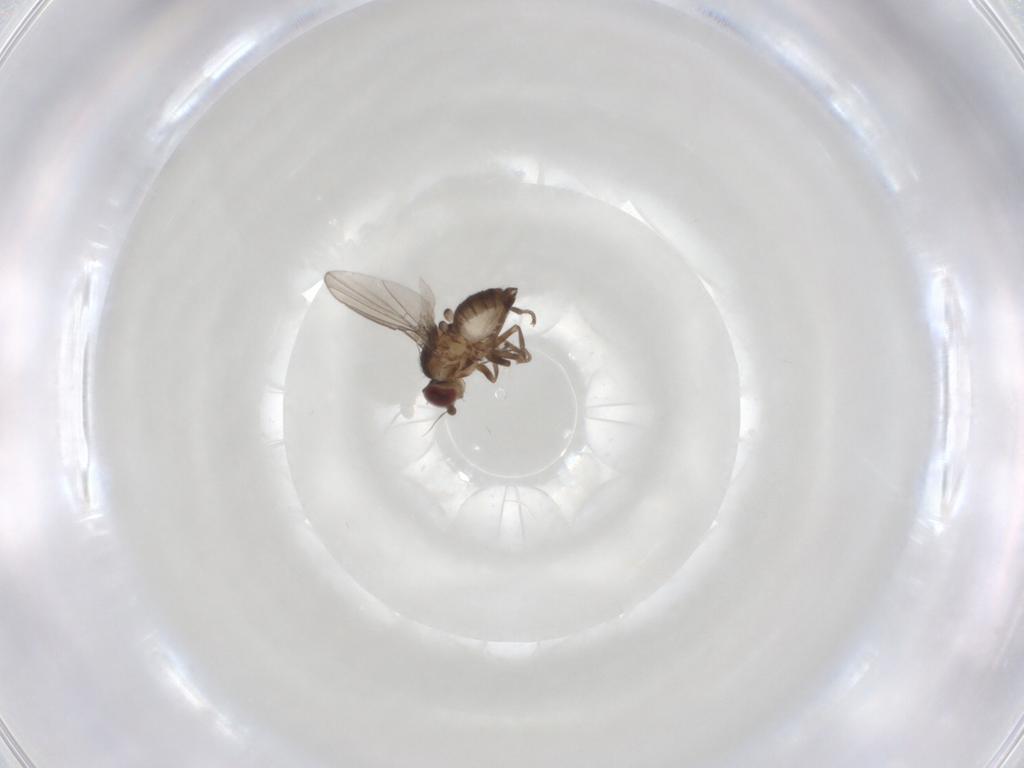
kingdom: Animalia
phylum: Arthropoda
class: Insecta
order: Diptera
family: Agromyzidae
